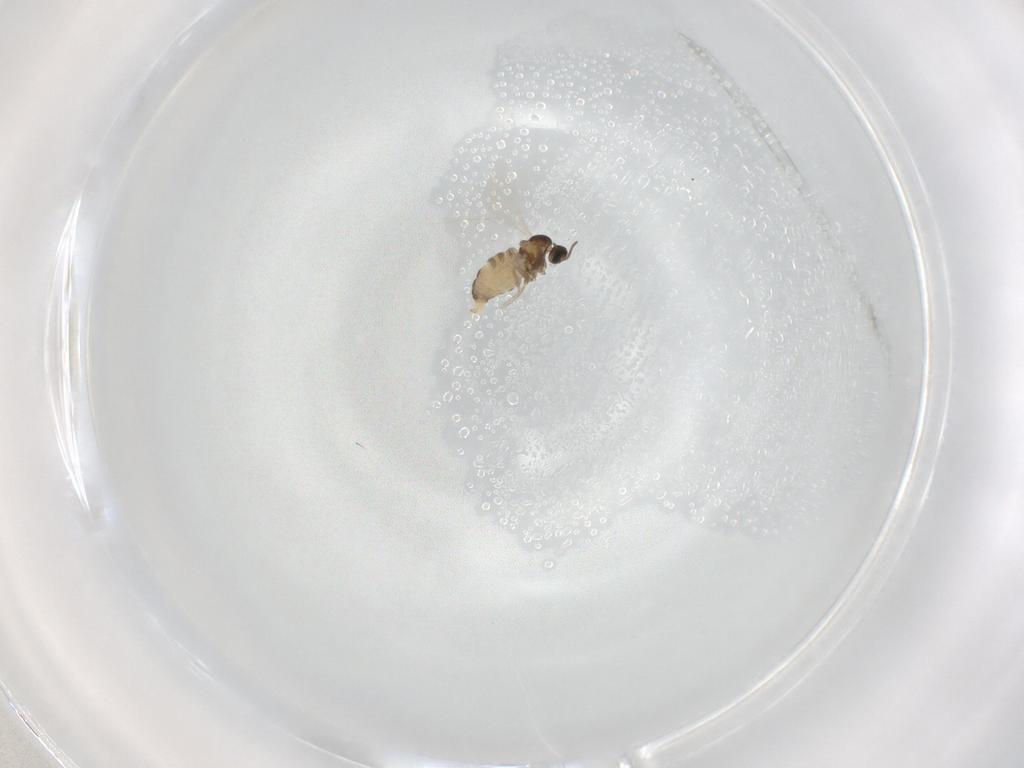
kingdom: Animalia
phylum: Arthropoda
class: Insecta
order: Diptera
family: Cecidomyiidae
